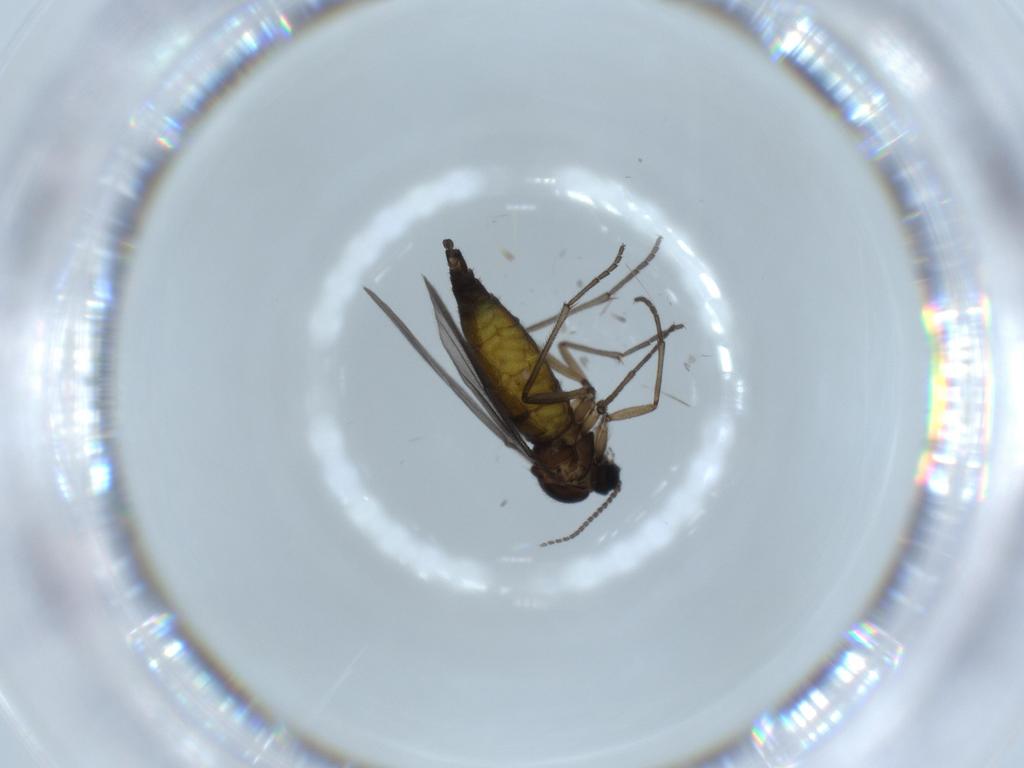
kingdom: Animalia
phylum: Arthropoda
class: Insecta
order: Diptera
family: Sciaridae
